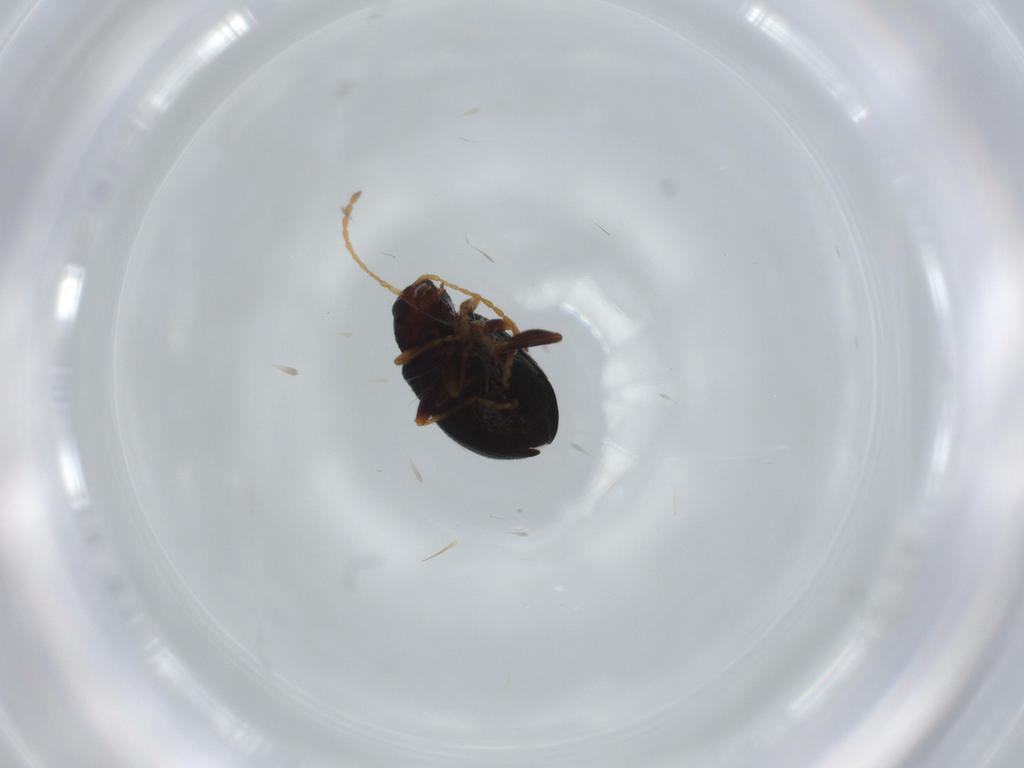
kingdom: Animalia
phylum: Arthropoda
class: Insecta
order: Coleoptera
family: Chrysomelidae
